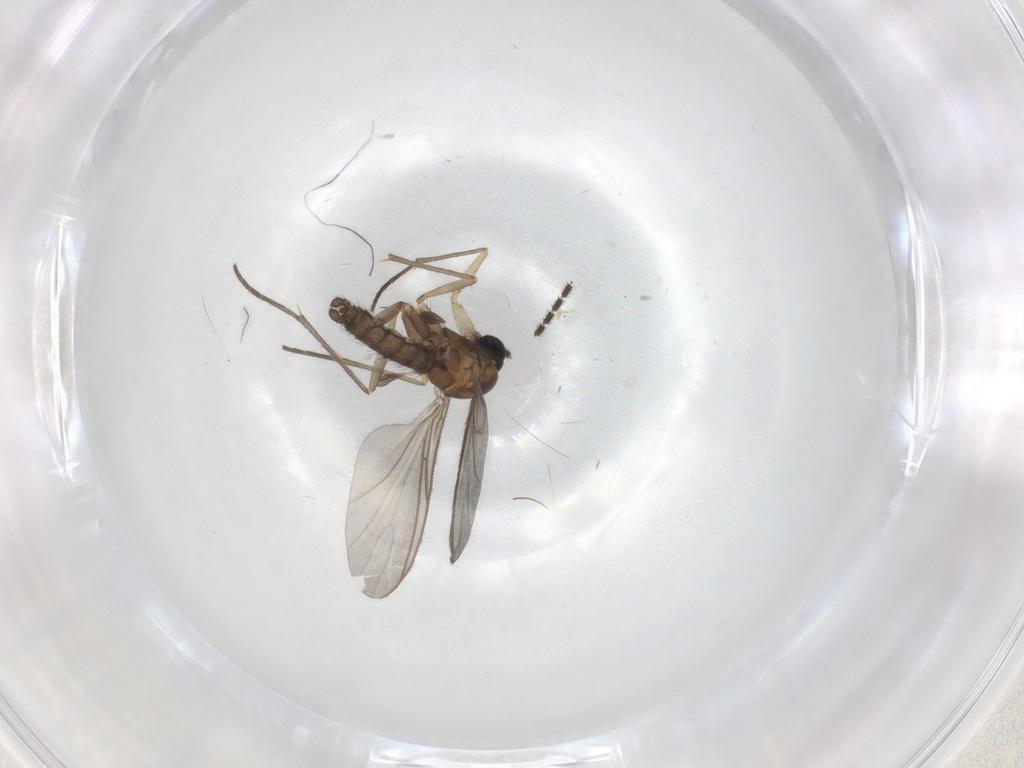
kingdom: Animalia
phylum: Arthropoda
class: Insecta
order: Diptera
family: Sciaridae
